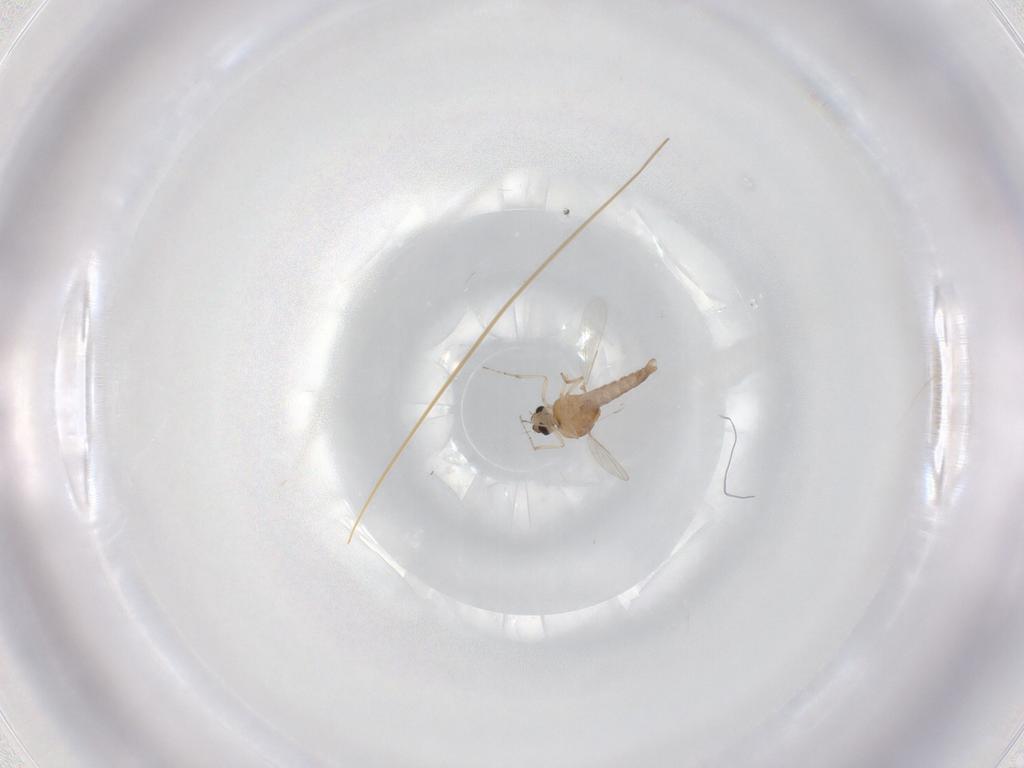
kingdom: Animalia
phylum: Arthropoda
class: Insecta
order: Diptera
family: Ceratopogonidae
